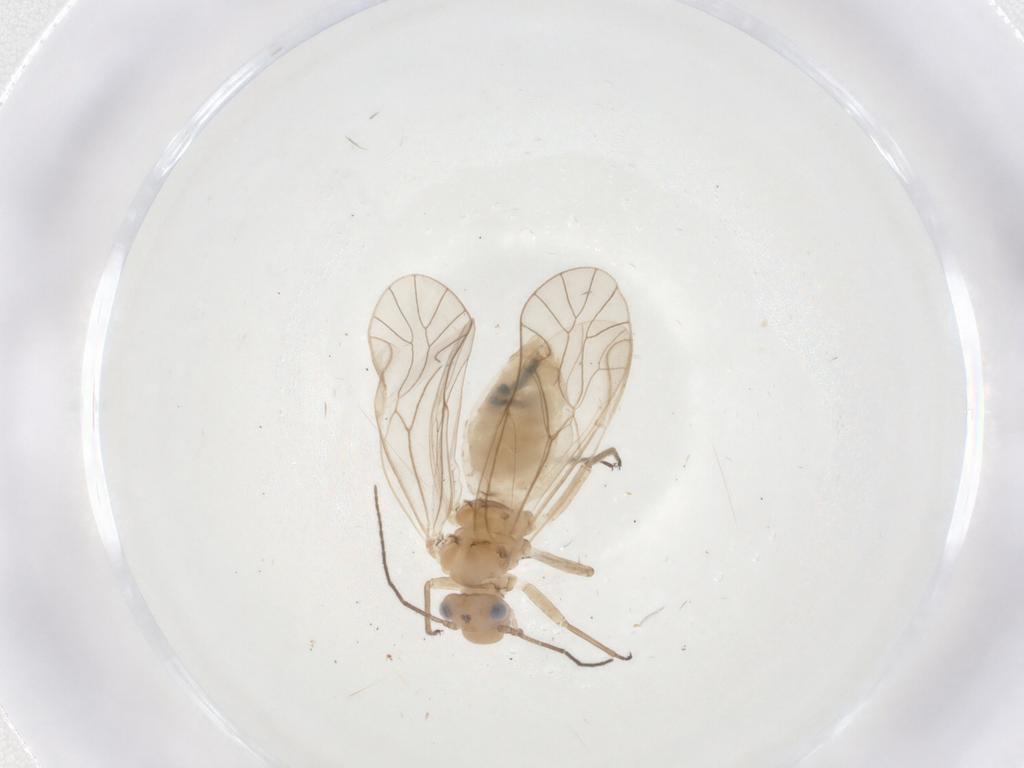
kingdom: Animalia
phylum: Arthropoda
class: Insecta
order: Psocodea
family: Elipsocidae
